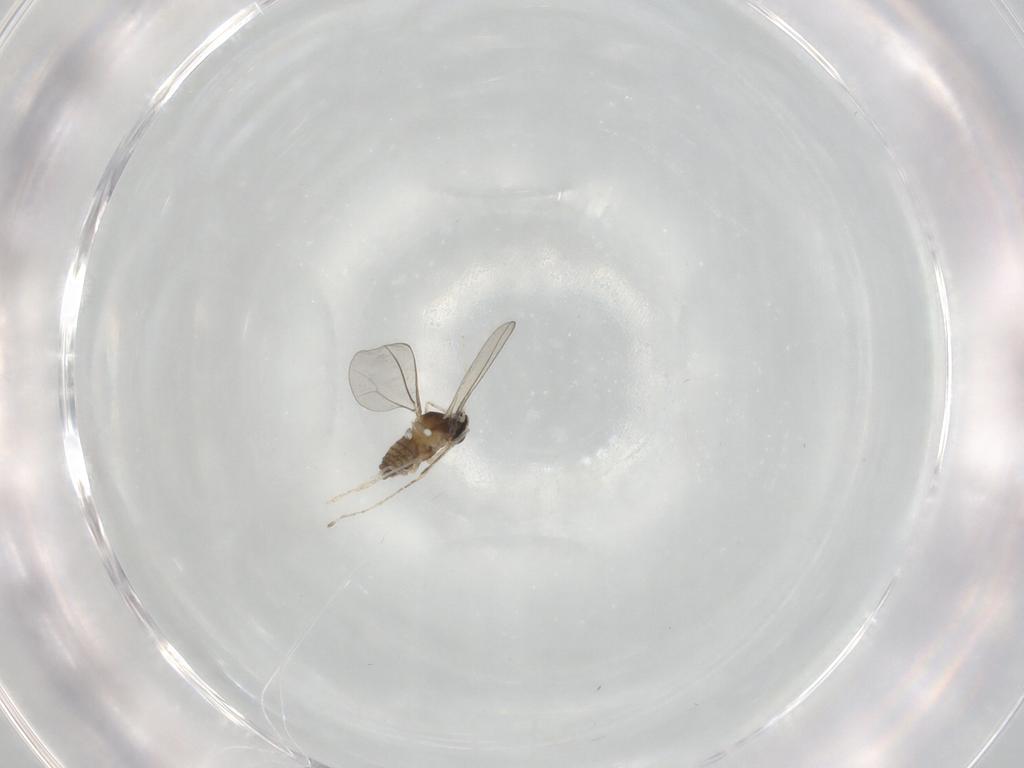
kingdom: Animalia
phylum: Arthropoda
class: Insecta
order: Diptera
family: Cecidomyiidae
